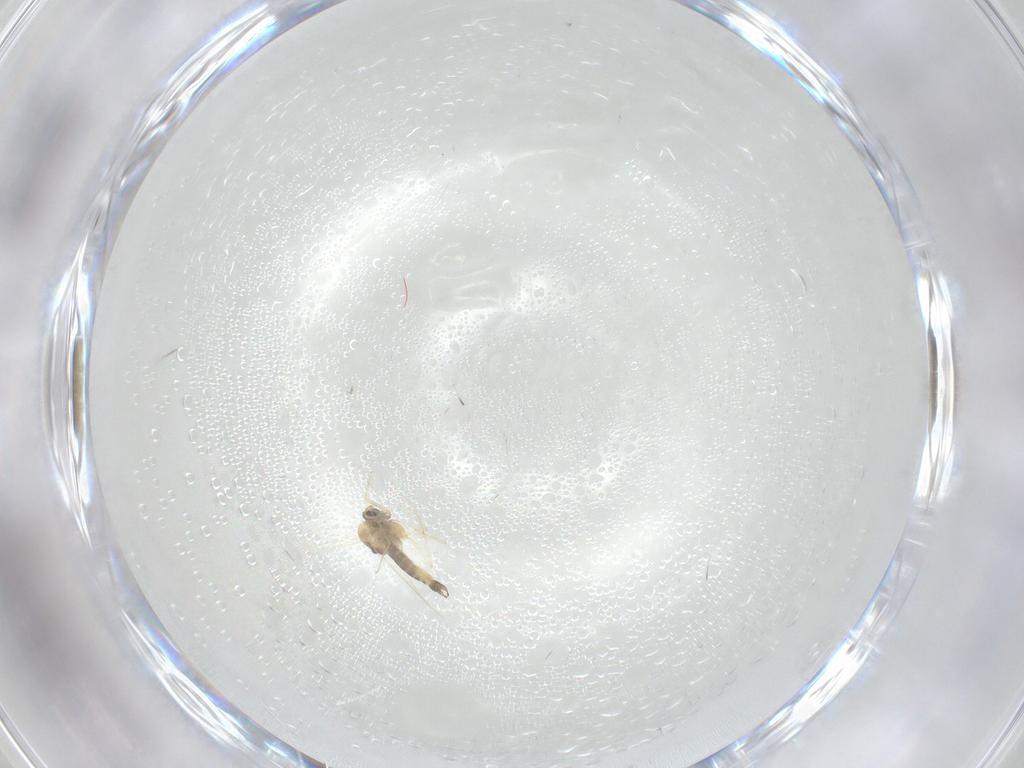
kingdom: Animalia
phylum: Arthropoda
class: Insecta
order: Diptera
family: Chironomidae
